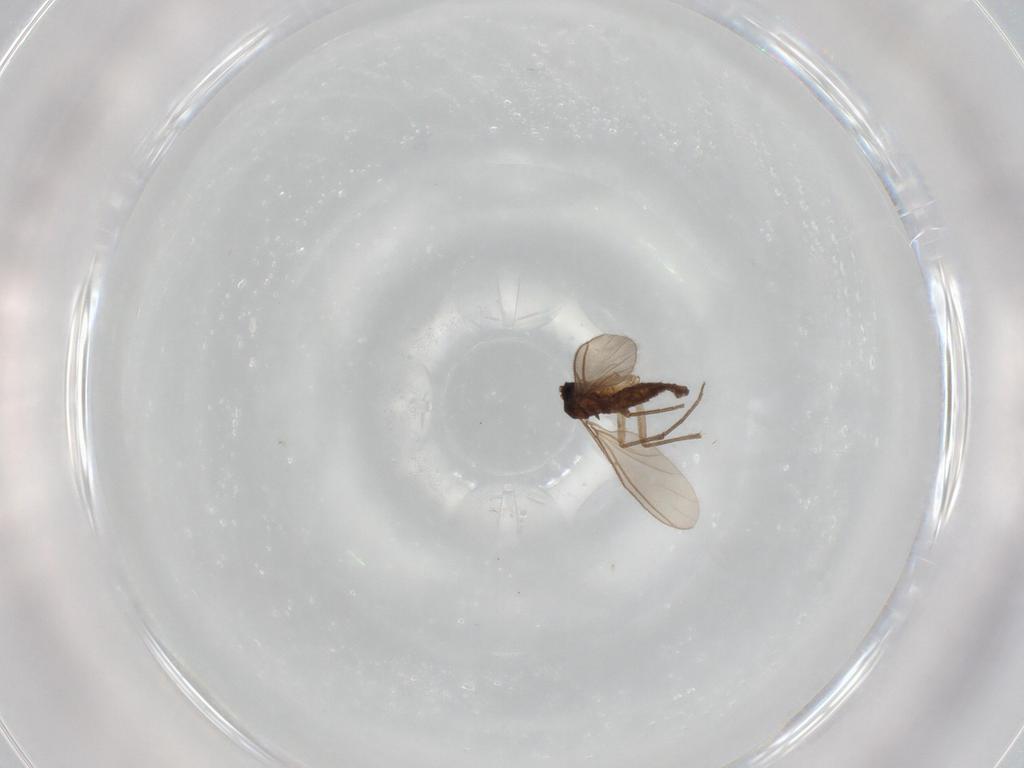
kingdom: Animalia
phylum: Arthropoda
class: Insecta
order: Diptera
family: Sciaridae
